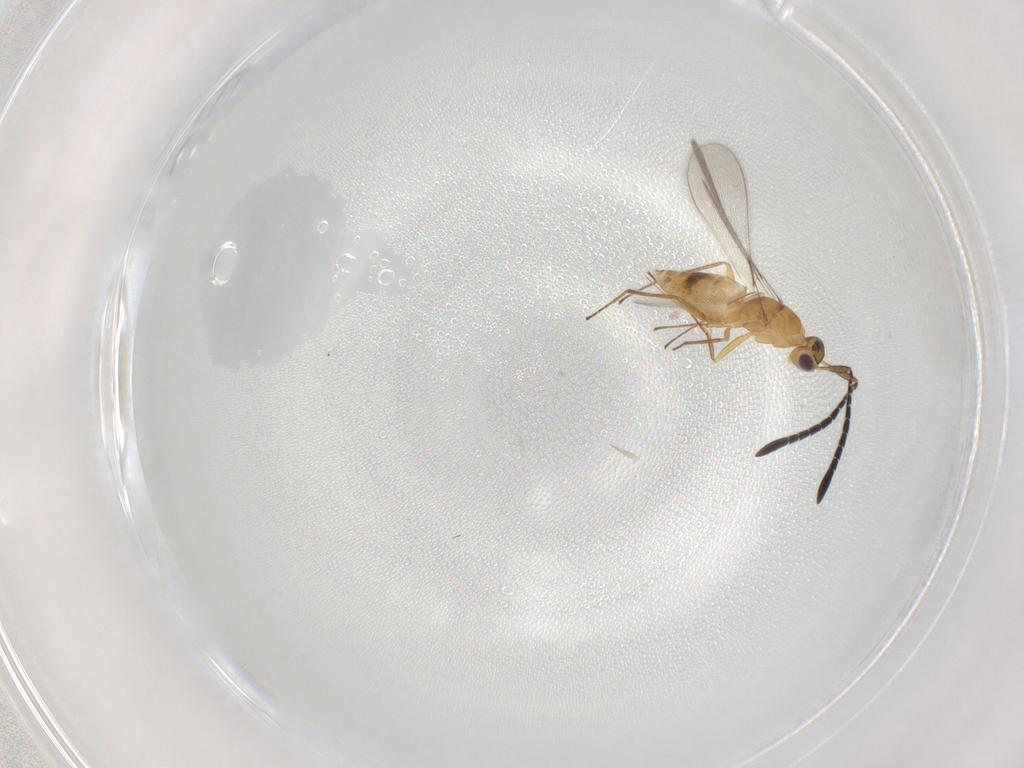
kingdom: Animalia
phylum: Arthropoda
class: Insecta
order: Hymenoptera
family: Mymaridae
